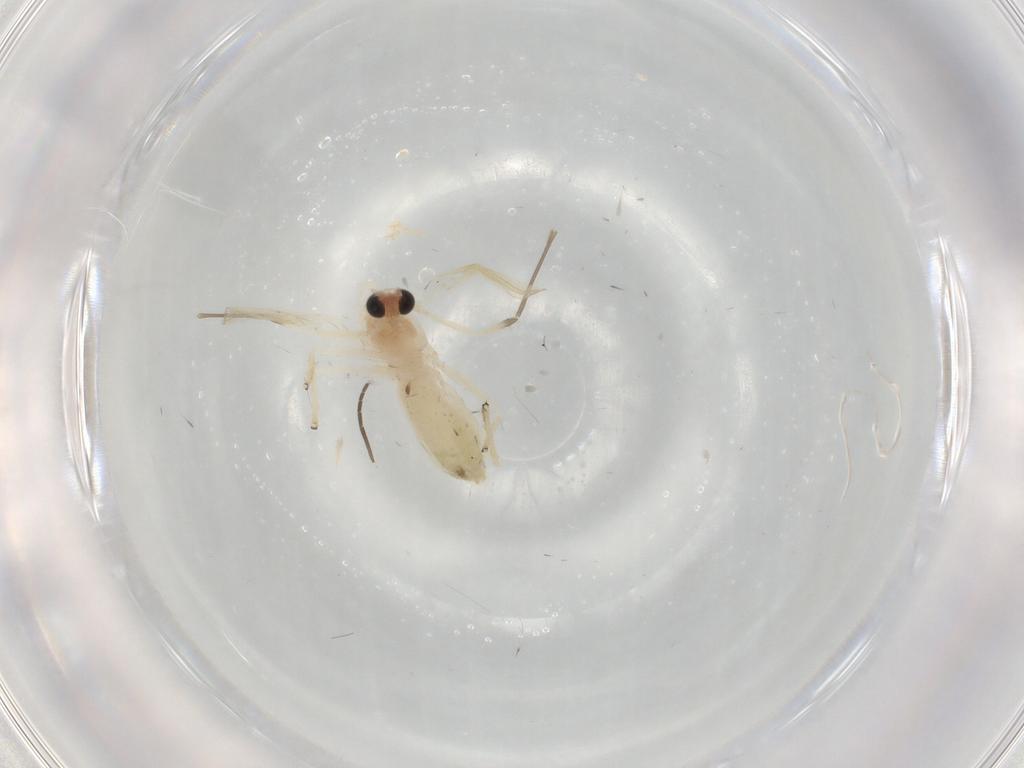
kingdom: Animalia
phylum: Arthropoda
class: Insecta
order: Diptera
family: Chironomidae
